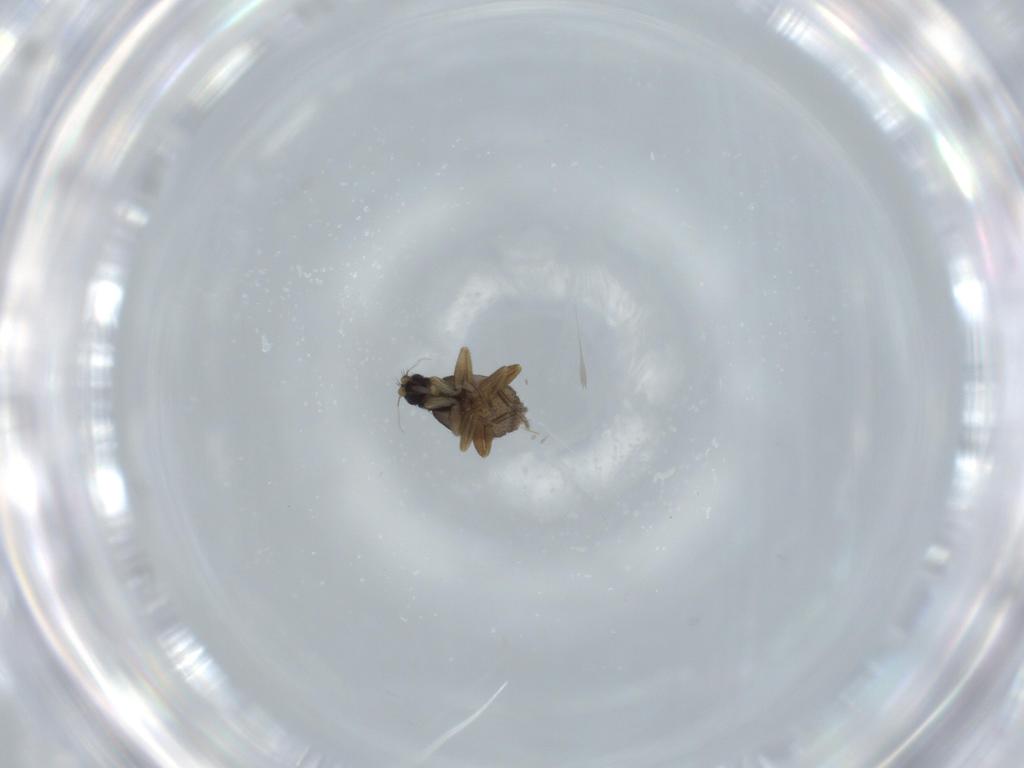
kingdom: Animalia
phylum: Arthropoda
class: Insecta
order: Diptera
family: Phoridae
